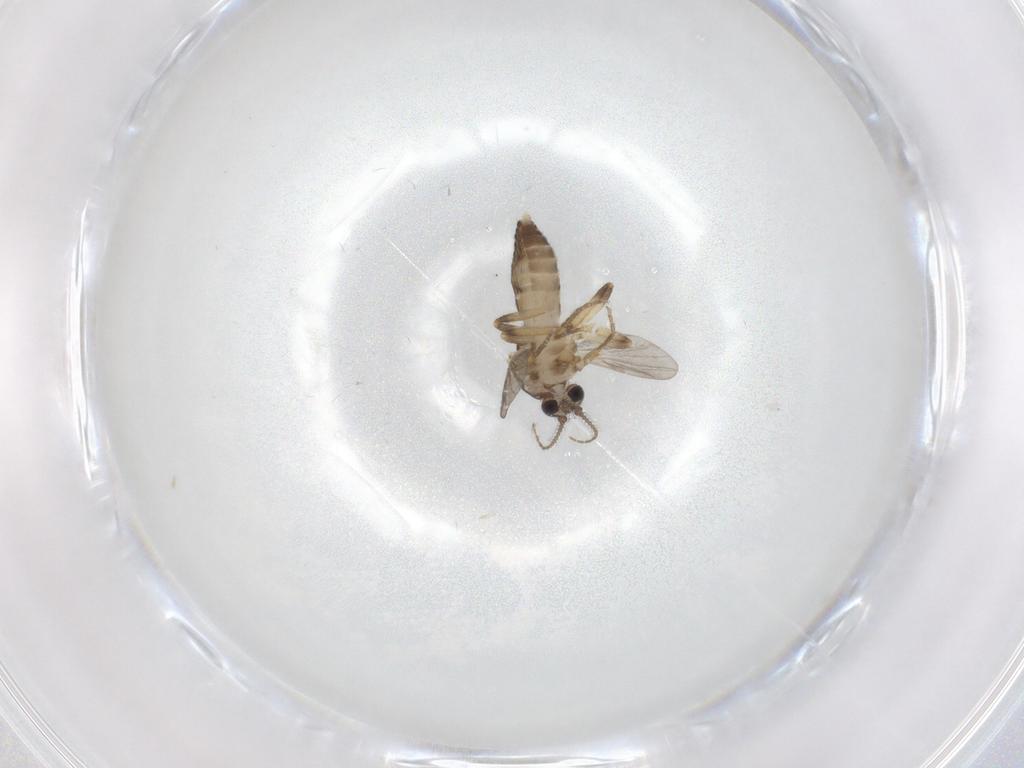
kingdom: Animalia
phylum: Arthropoda
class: Insecta
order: Diptera
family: Ceratopogonidae
